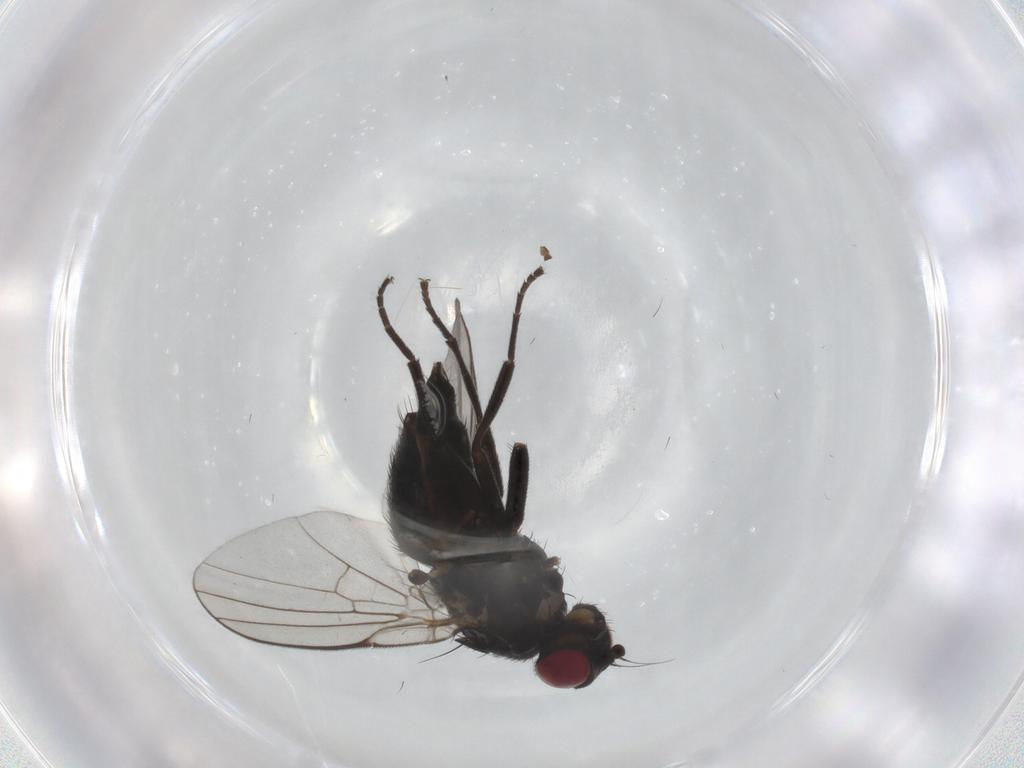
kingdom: Animalia
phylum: Arthropoda
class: Insecta
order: Diptera
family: Agromyzidae
